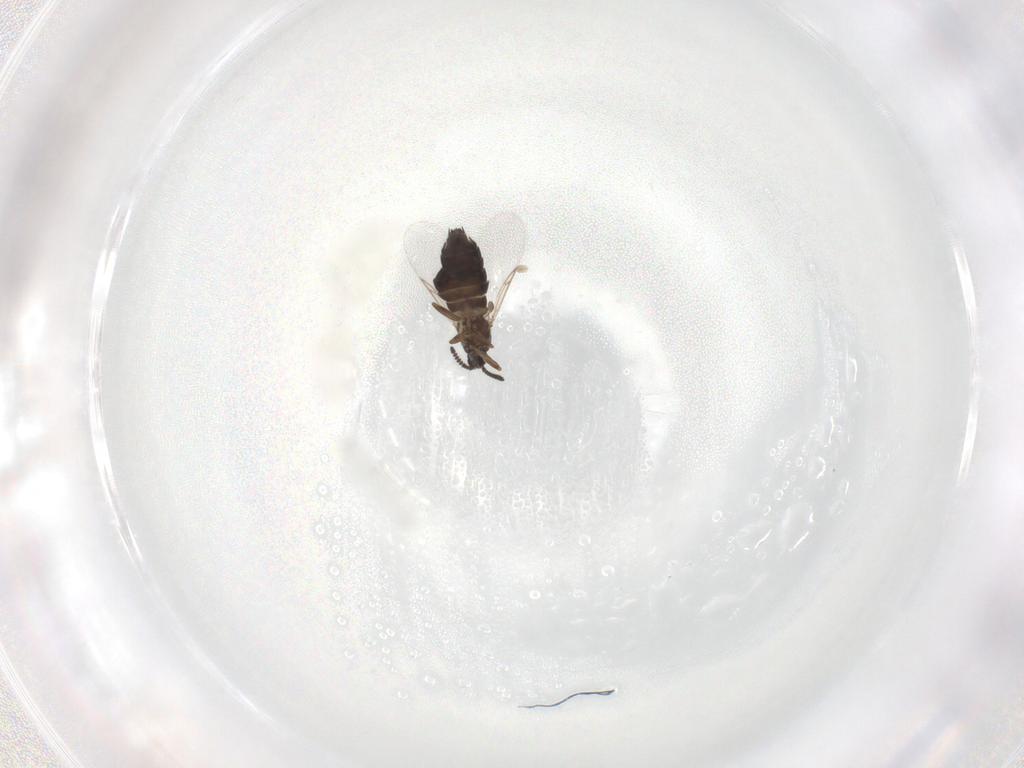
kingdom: Animalia
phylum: Arthropoda
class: Insecta
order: Diptera
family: Scatopsidae
